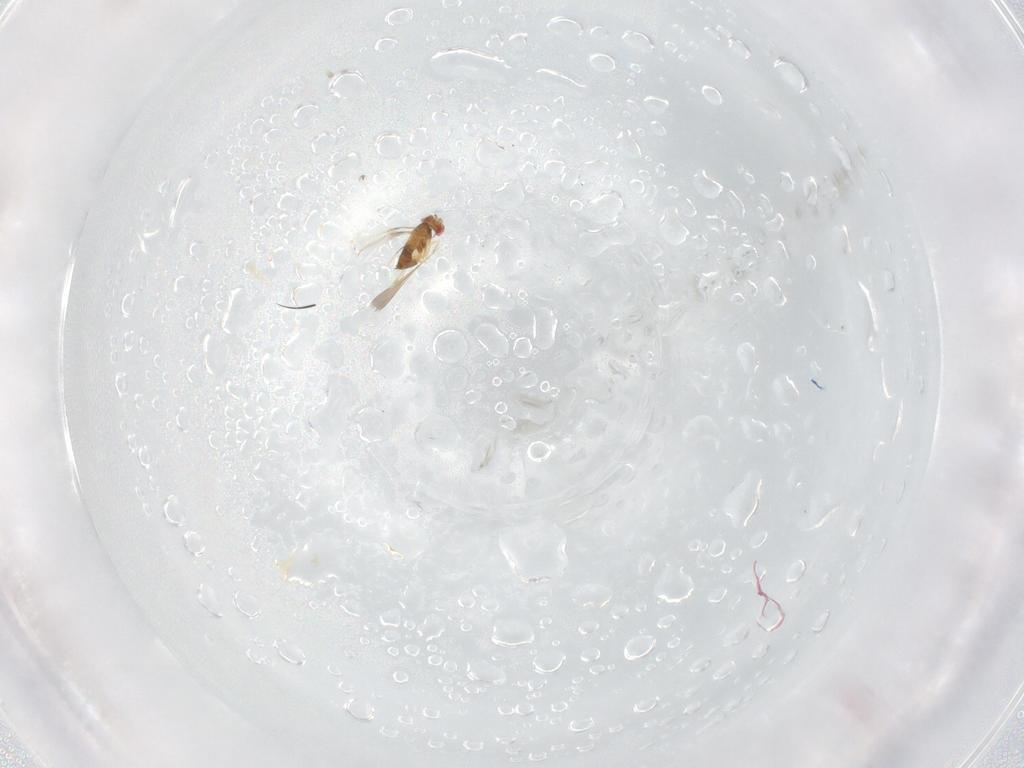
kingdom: Animalia
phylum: Arthropoda
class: Insecta
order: Hymenoptera
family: Trichogrammatidae
